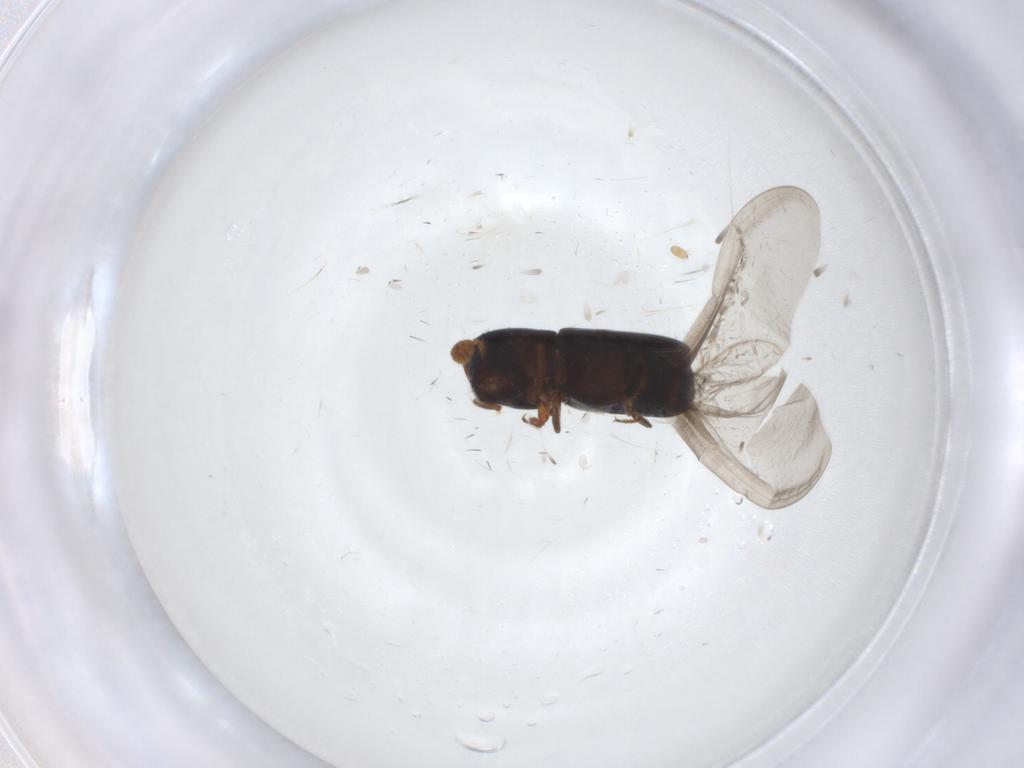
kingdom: Animalia
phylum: Arthropoda
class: Insecta
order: Coleoptera
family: Curculionidae
